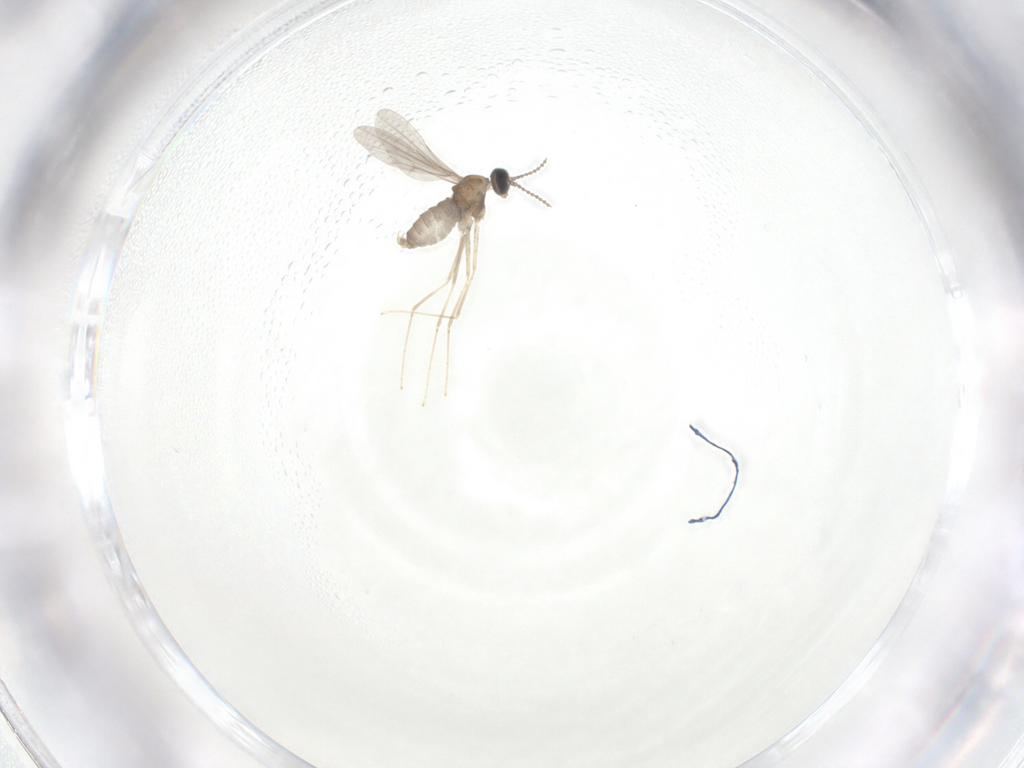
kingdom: Animalia
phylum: Arthropoda
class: Insecta
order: Diptera
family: Cecidomyiidae
